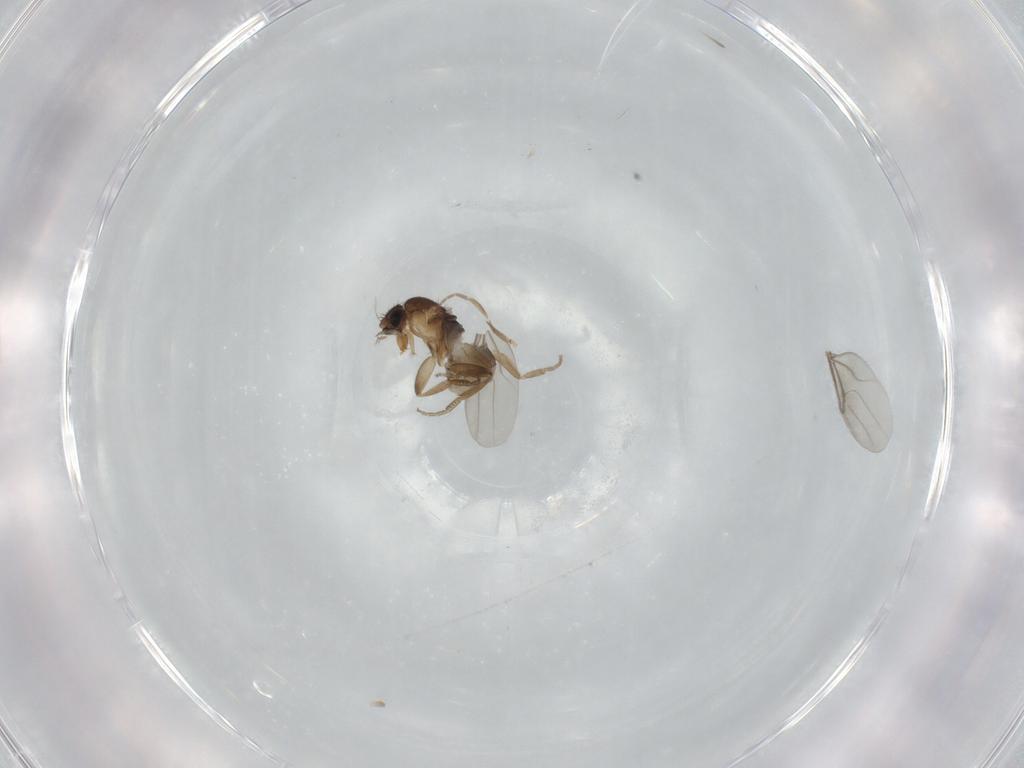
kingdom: Animalia
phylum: Arthropoda
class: Insecta
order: Diptera
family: Phoridae
